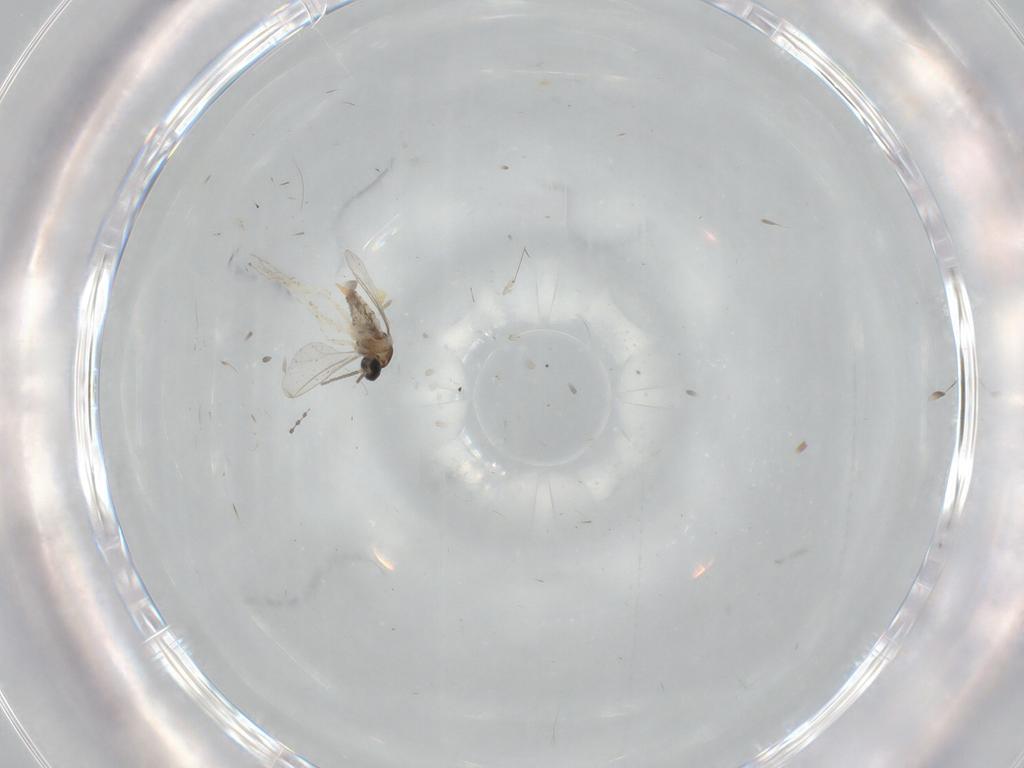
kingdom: Animalia
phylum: Arthropoda
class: Insecta
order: Diptera
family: Cecidomyiidae
